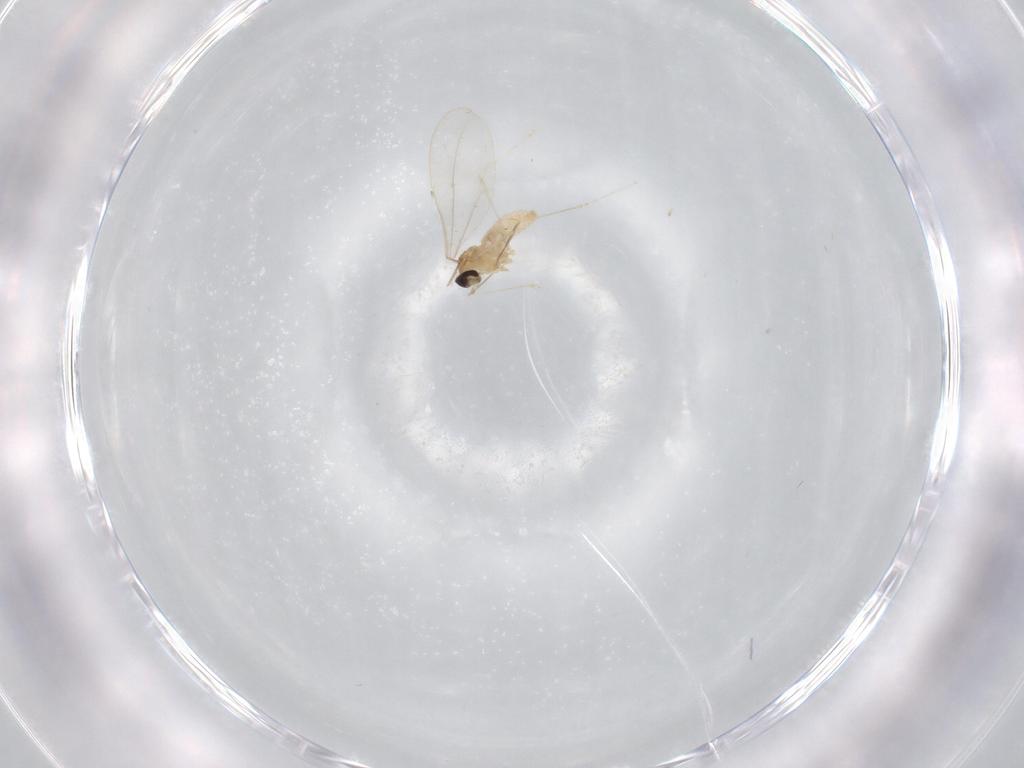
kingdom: Animalia
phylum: Arthropoda
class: Insecta
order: Diptera
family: Cecidomyiidae
